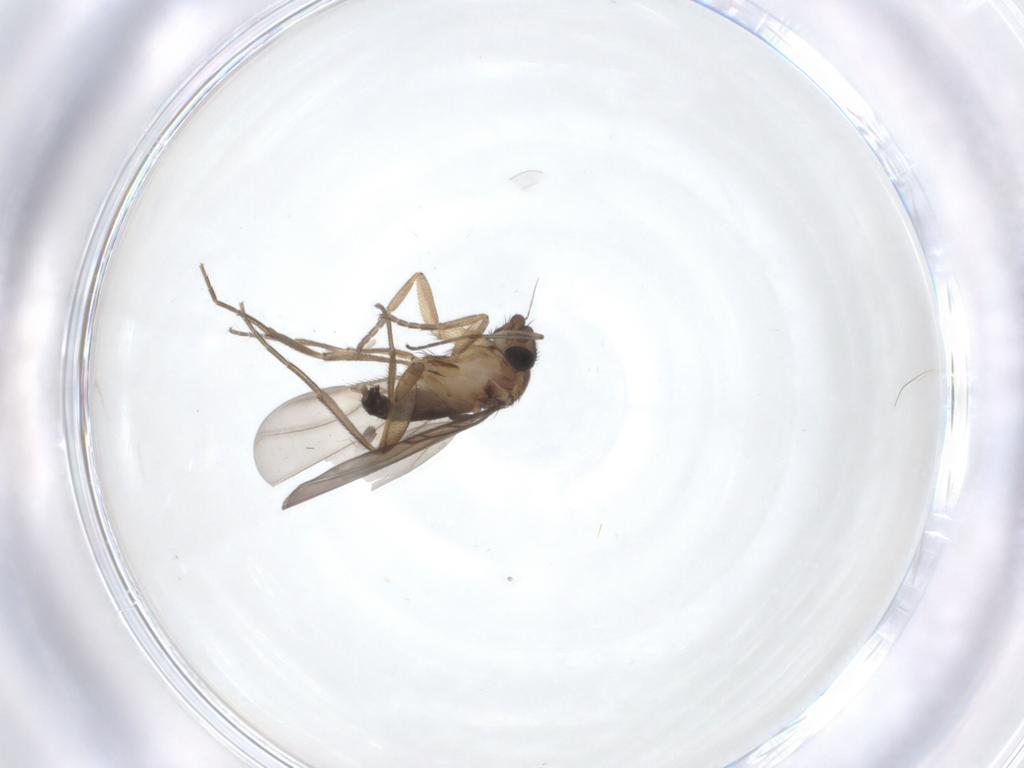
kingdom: Animalia
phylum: Arthropoda
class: Insecta
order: Diptera
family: Sciaridae
